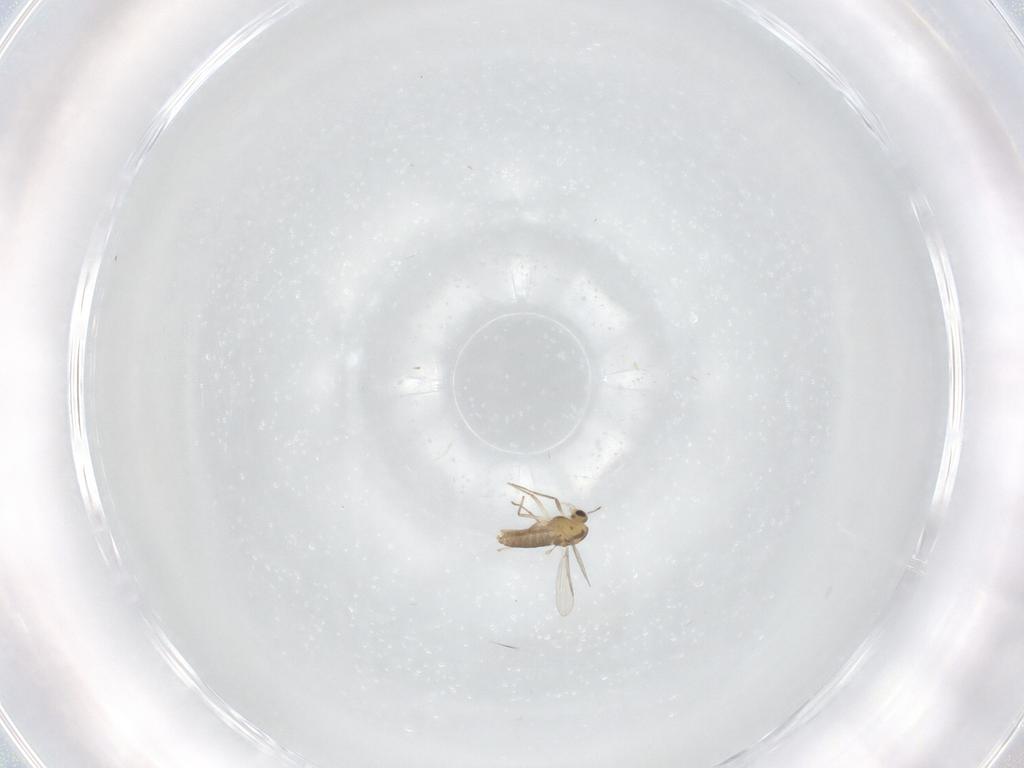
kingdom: Animalia
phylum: Arthropoda
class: Insecta
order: Diptera
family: Chironomidae
